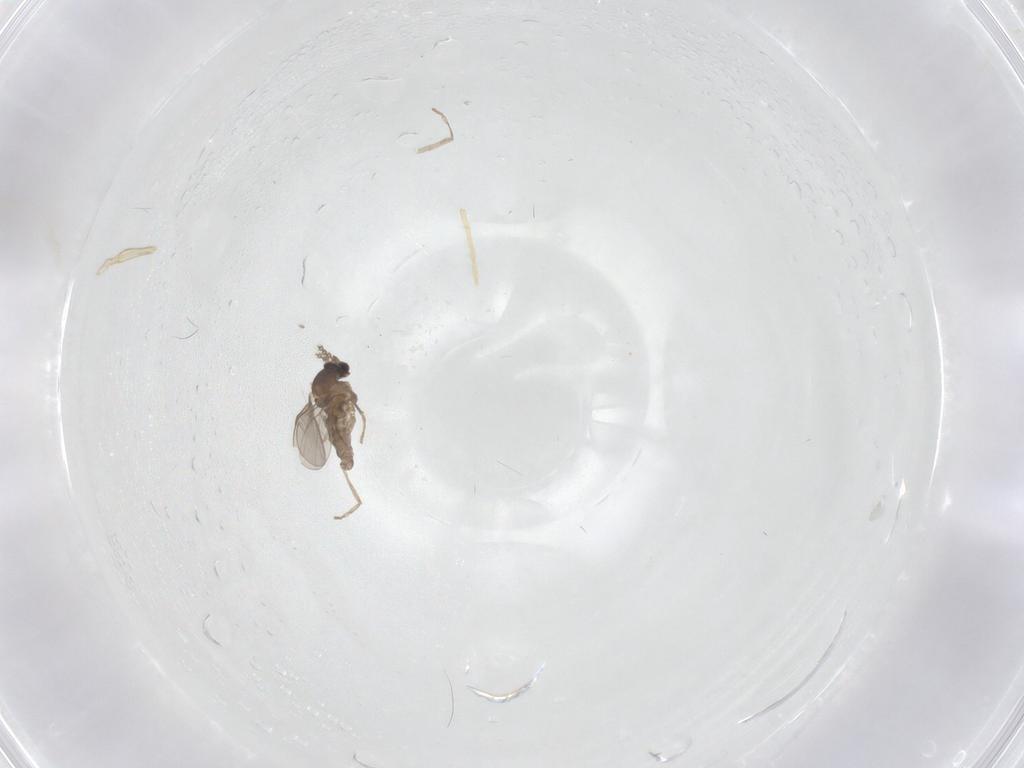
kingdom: Animalia
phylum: Arthropoda
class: Insecta
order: Diptera
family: Cecidomyiidae
